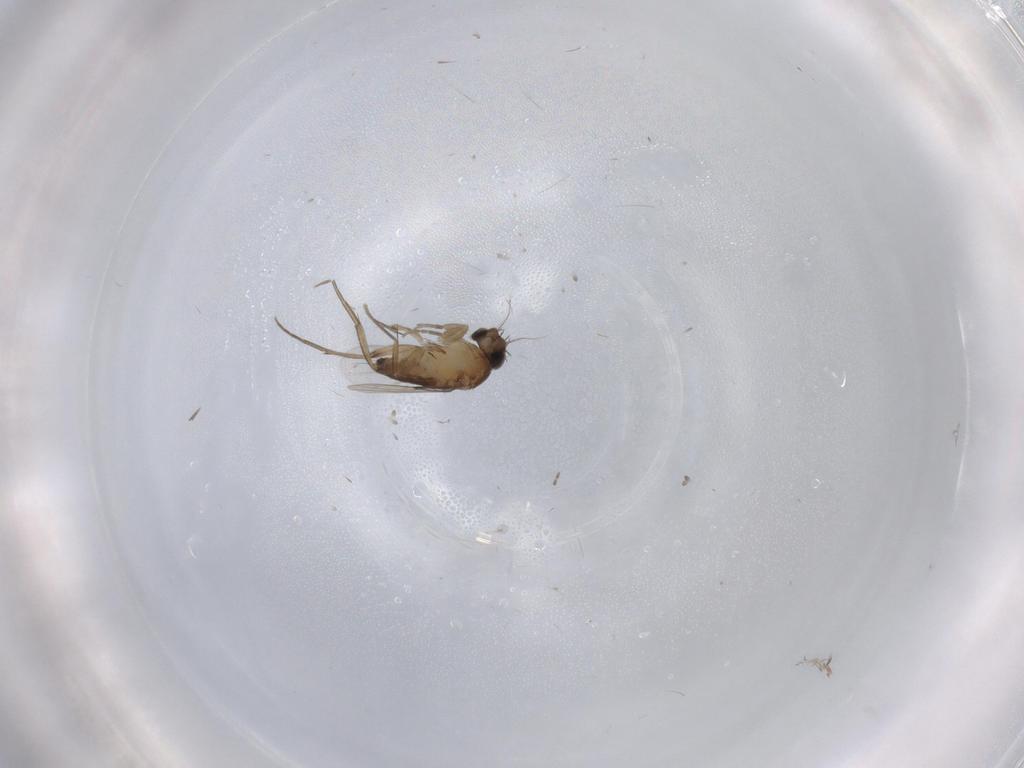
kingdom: Animalia
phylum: Arthropoda
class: Insecta
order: Diptera
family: Phoridae
